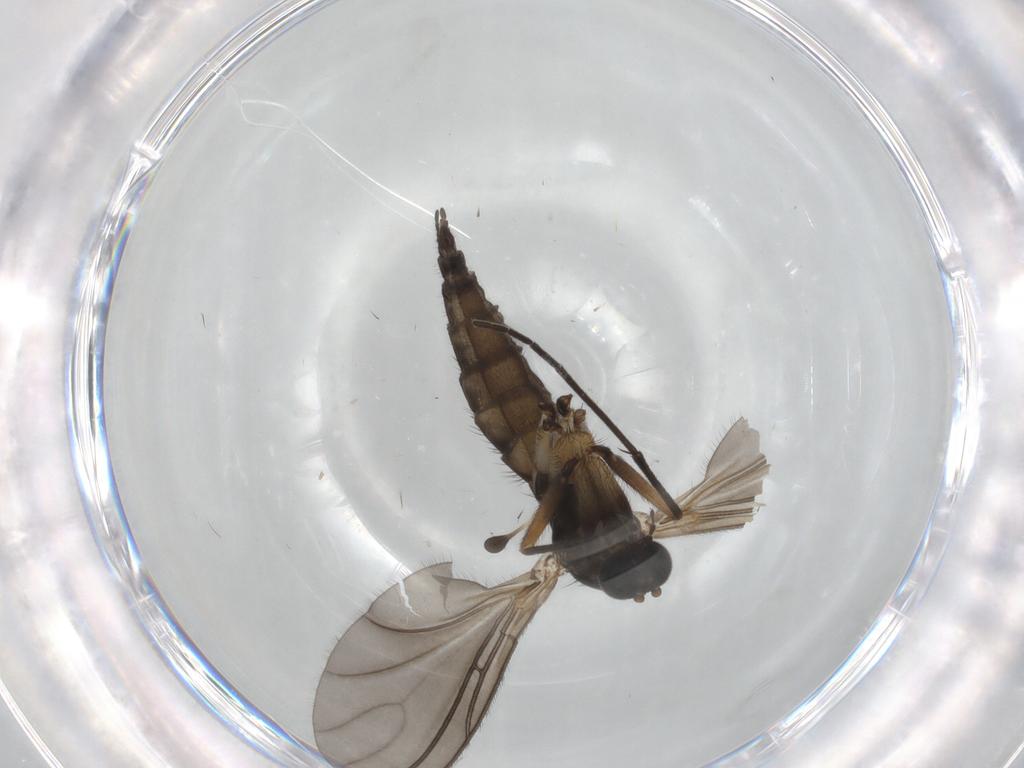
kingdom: Animalia
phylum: Arthropoda
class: Insecta
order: Diptera
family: Sciaridae
